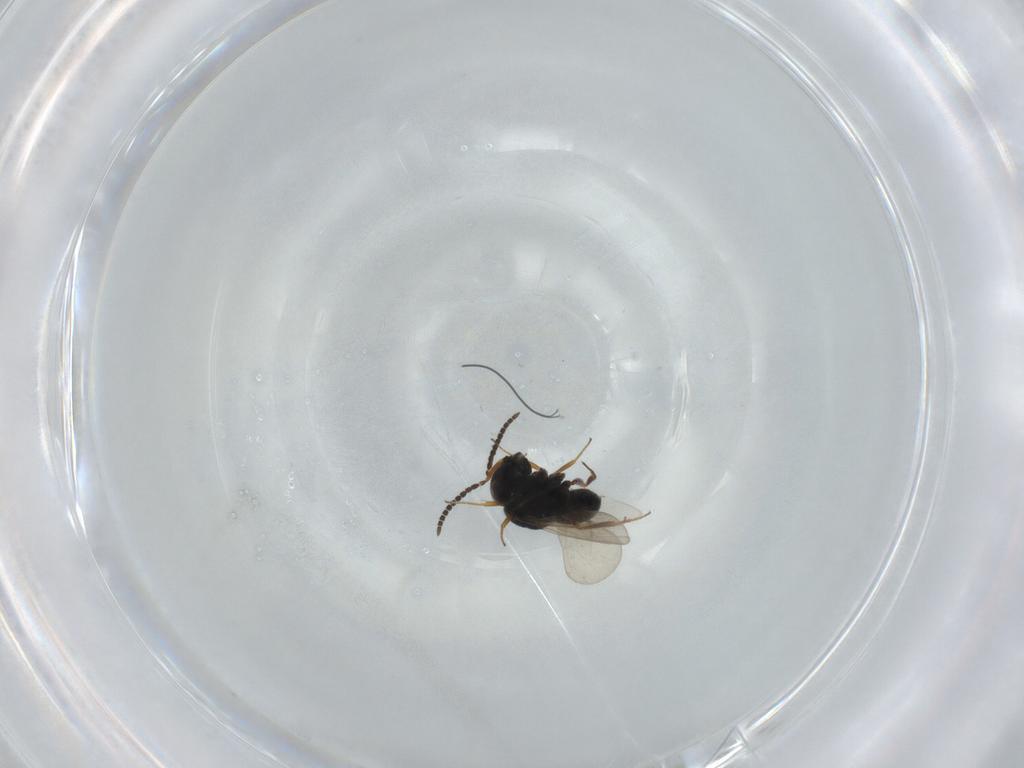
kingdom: Animalia
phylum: Arthropoda
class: Insecta
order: Hymenoptera
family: Scelionidae
